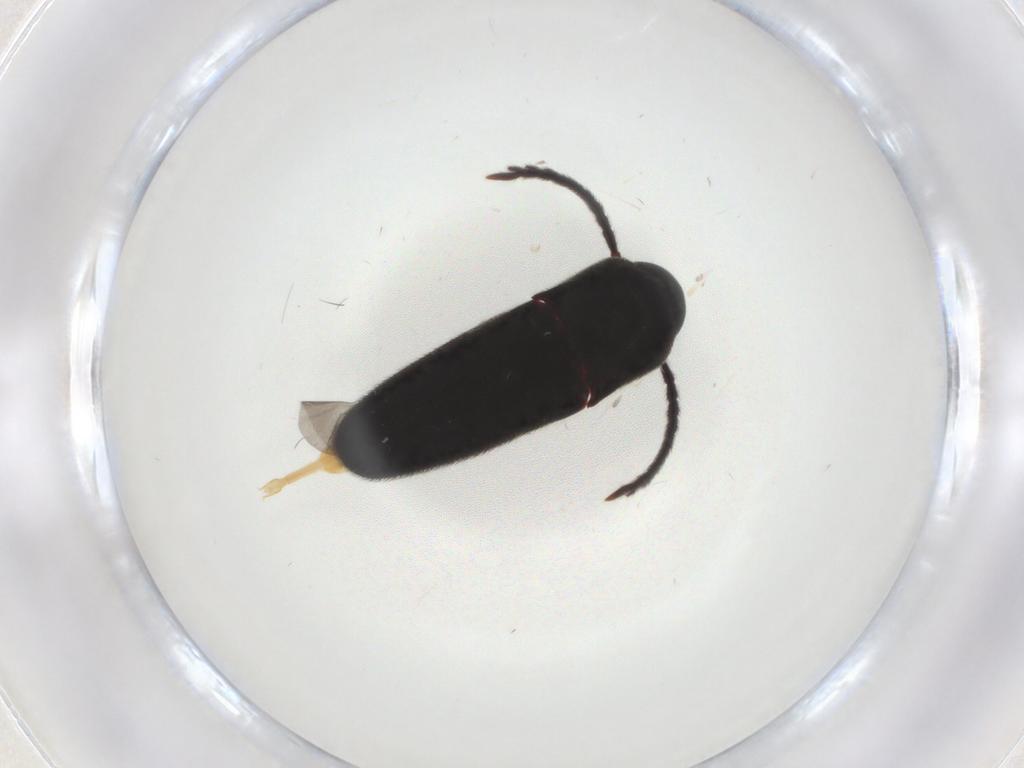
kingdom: Animalia
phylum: Arthropoda
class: Insecta
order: Coleoptera
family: Eucnemidae
